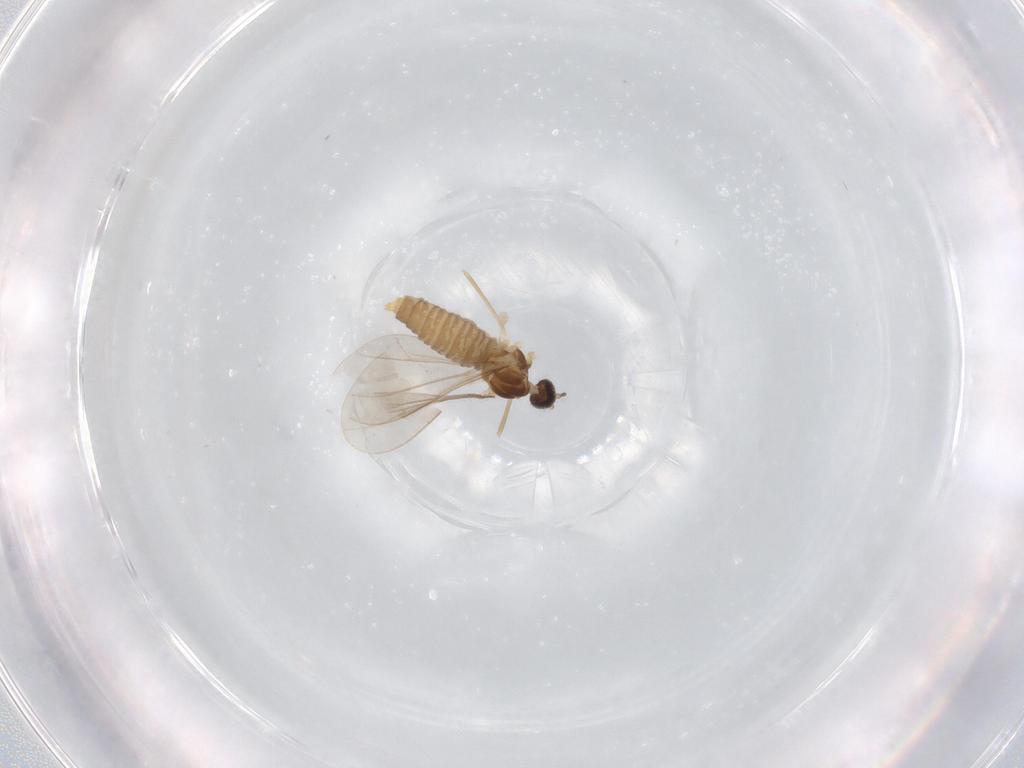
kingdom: Animalia
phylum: Arthropoda
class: Insecta
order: Diptera
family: Cecidomyiidae
